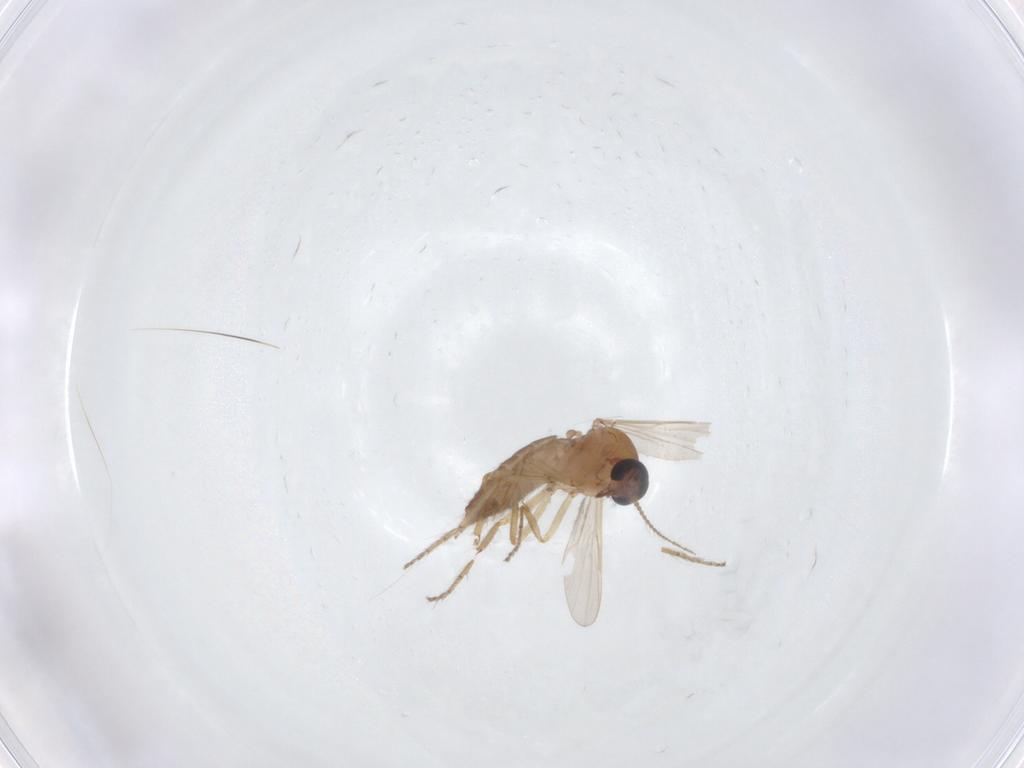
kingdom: Animalia
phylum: Arthropoda
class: Insecta
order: Diptera
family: Ceratopogonidae
